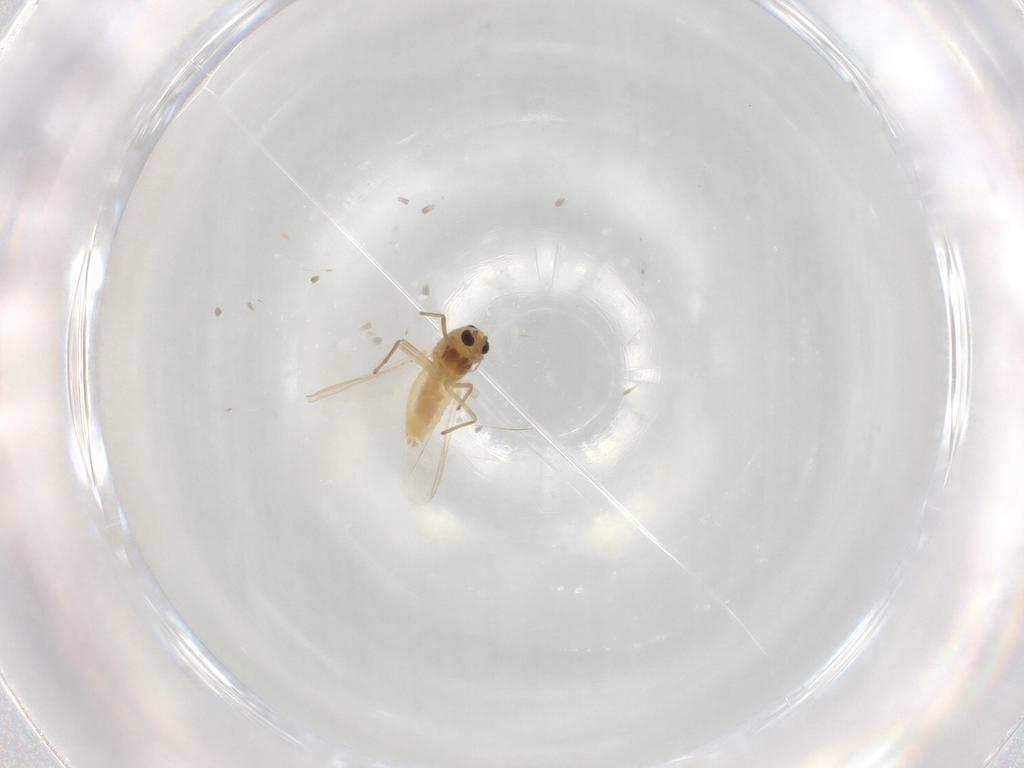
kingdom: Animalia
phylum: Arthropoda
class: Insecta
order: Diptera
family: Chironomidae
